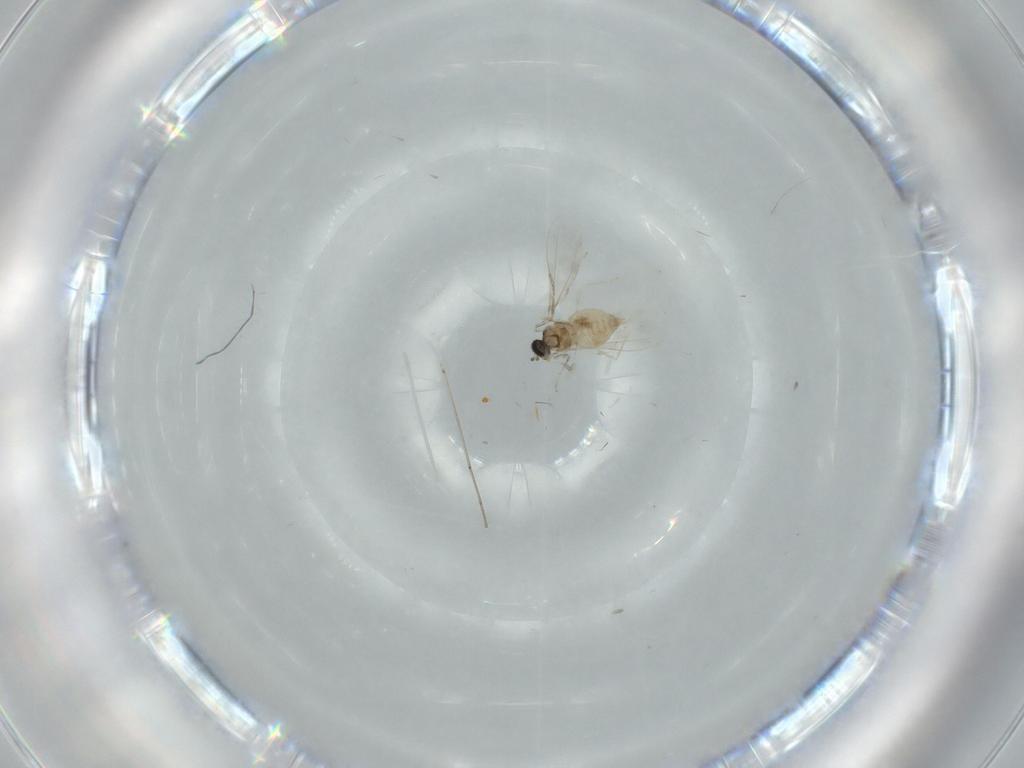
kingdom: Animalia
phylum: Arthropoda
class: Insecta
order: Diptera
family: Cecidomyiidae
